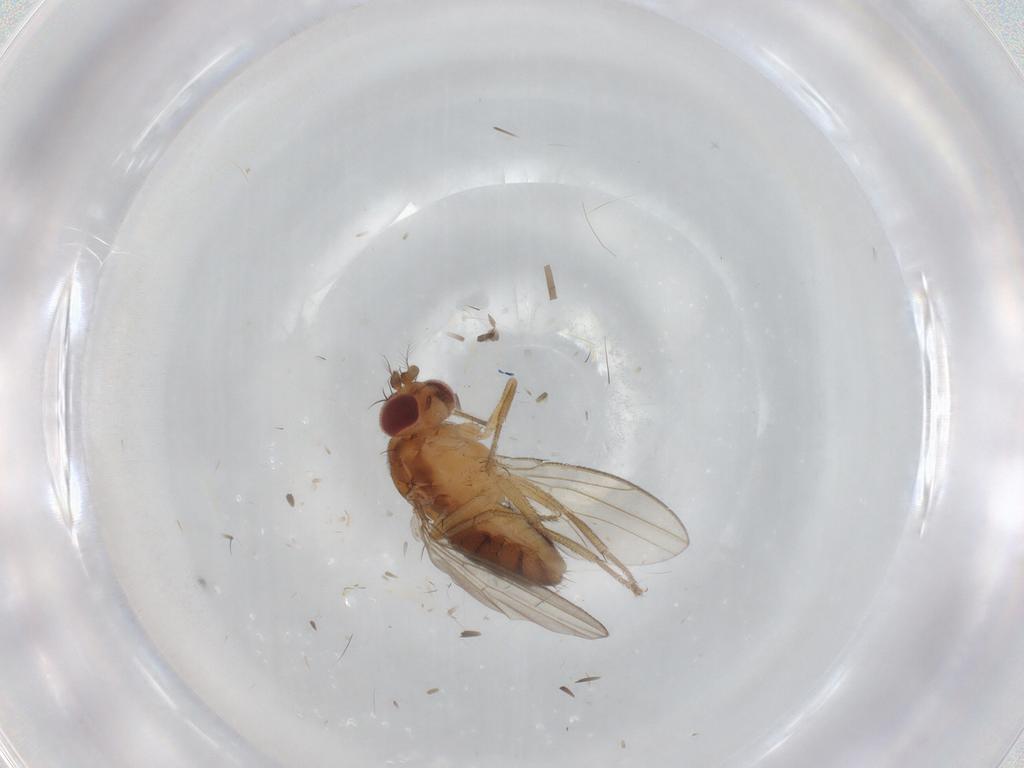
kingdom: Animalia
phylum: Arthropoda
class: Insecta
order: Diptera
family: Drosophilidae
